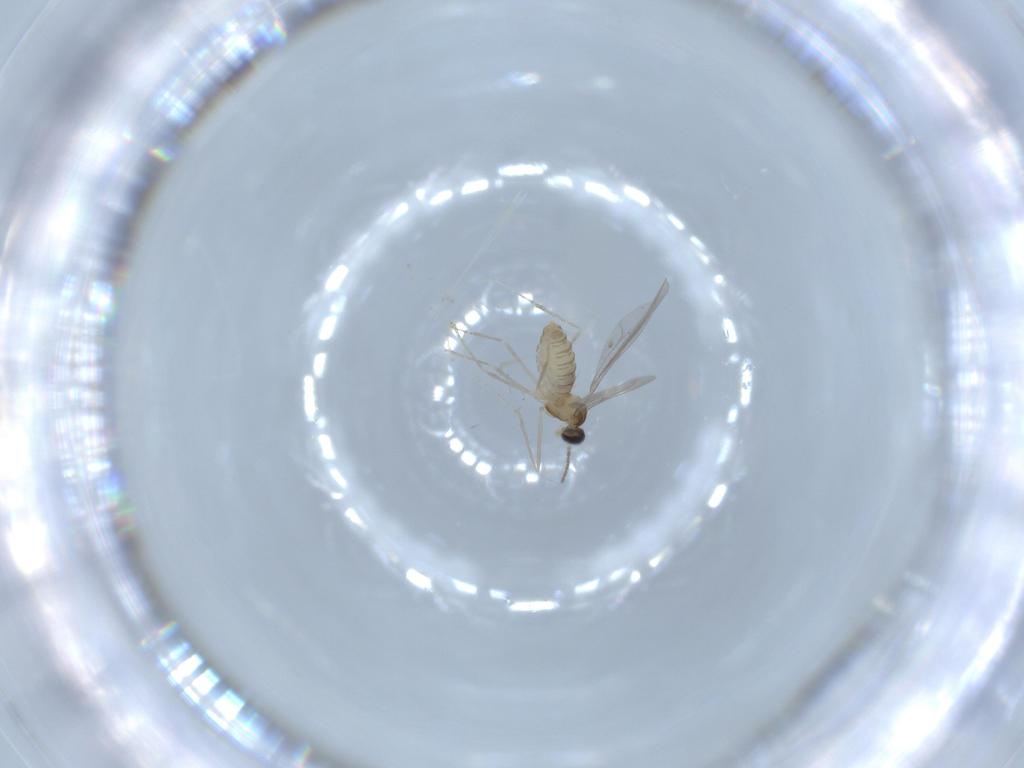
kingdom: Animalia
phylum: Arthropoda
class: Insecta
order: Diptera
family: Cecidomyiidae
